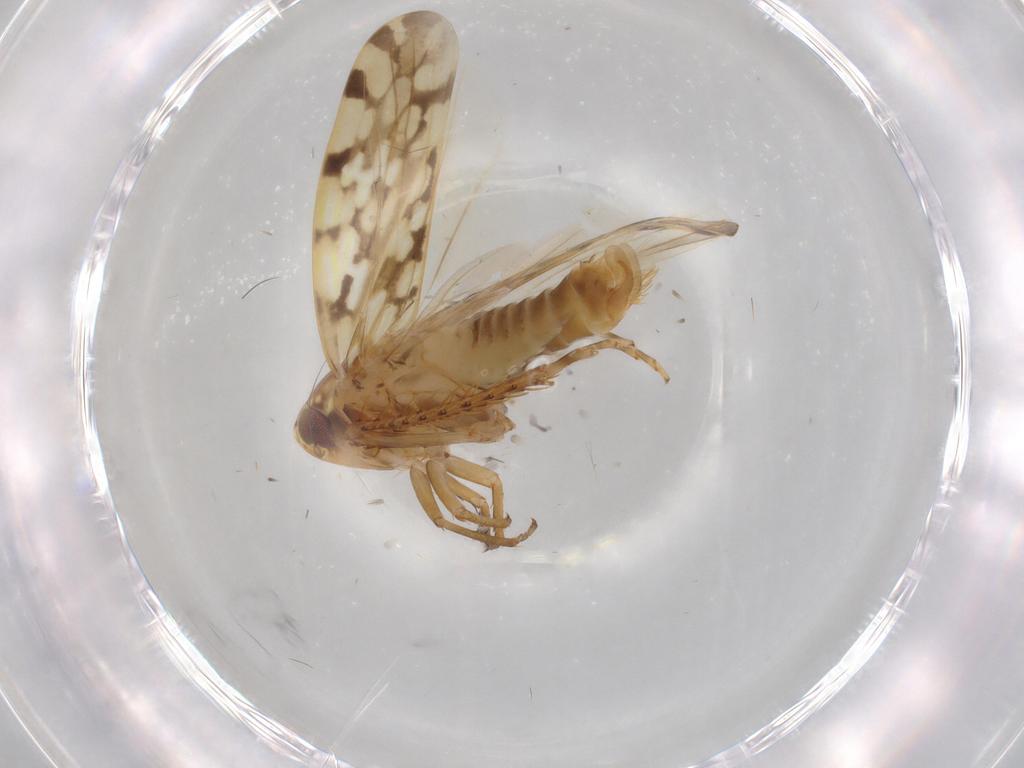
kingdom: Animalia
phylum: Arthropoda
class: Insecta
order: Hemiptera
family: Cicadellidae
